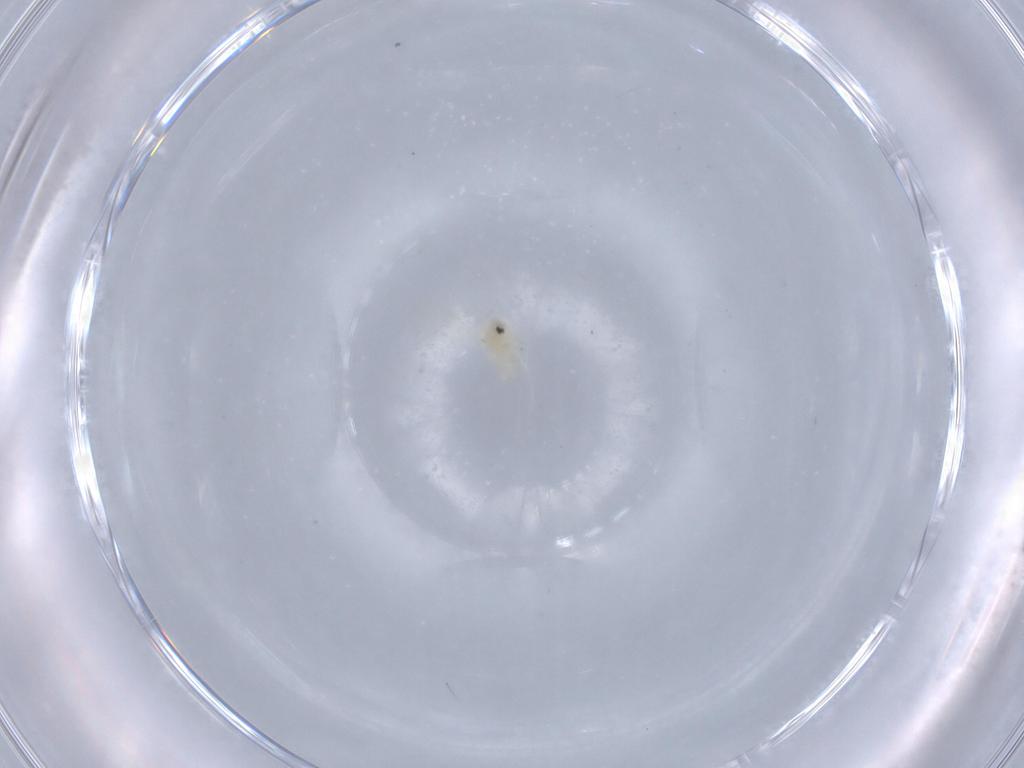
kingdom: Animalia
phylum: Arthropoda
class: Insecta
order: Hemiptera
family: Aleyrodidae
